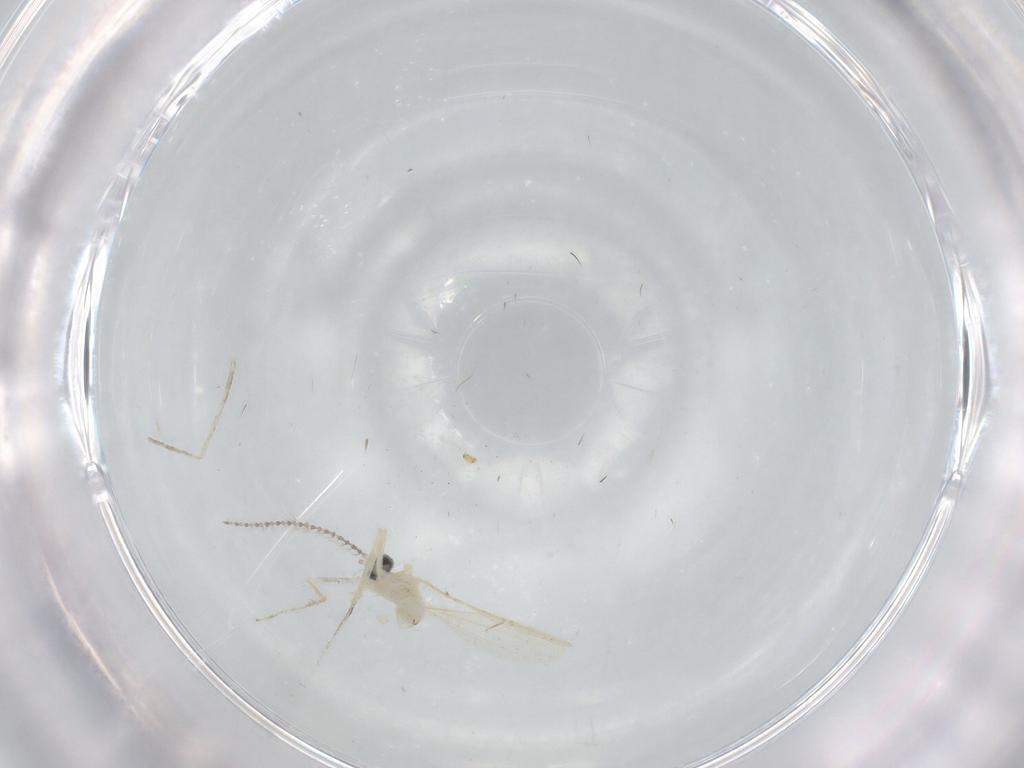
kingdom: Animalia
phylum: Arthropoda
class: Insecta
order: Diptera
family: Cecidomyiidae
